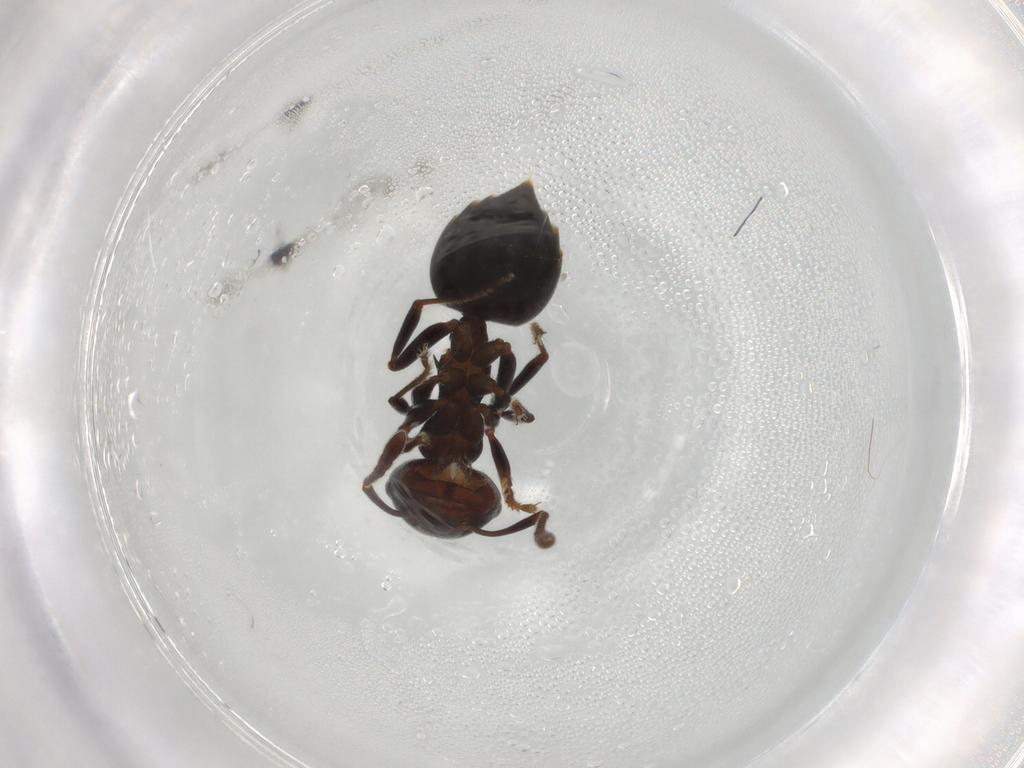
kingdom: Animalia
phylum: Arthropoda
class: Insecta
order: Hymenoptera
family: Formicidae
